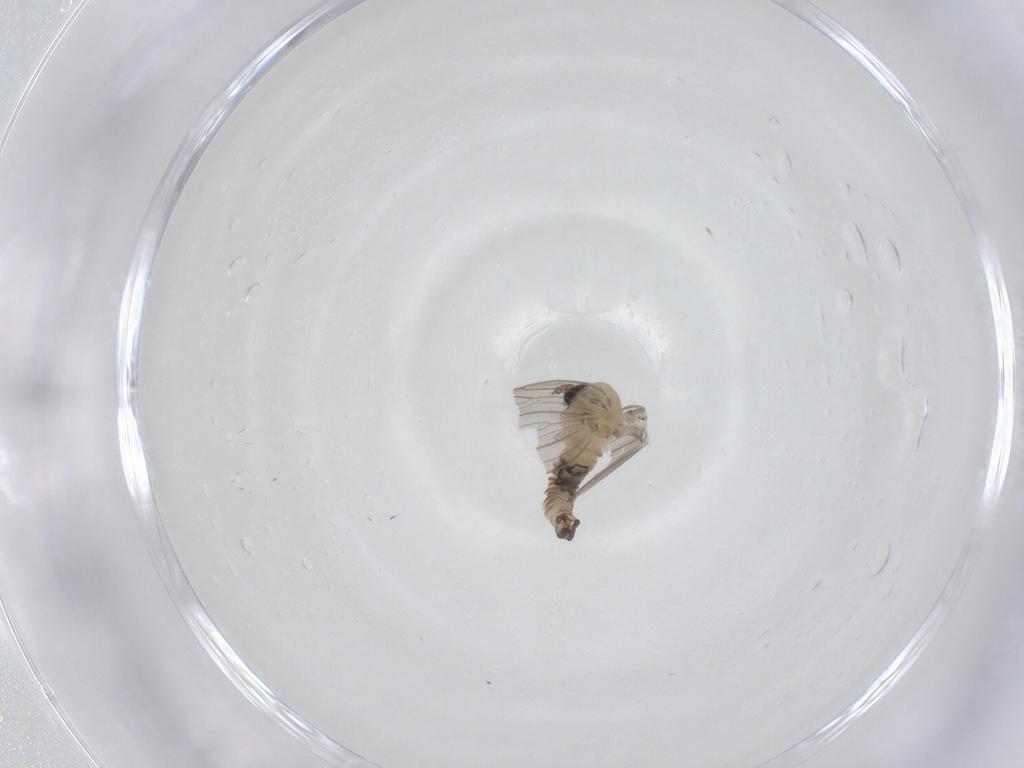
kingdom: Animalia
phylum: Arthropoda
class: Insecta
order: Diptera
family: Psychodidae
